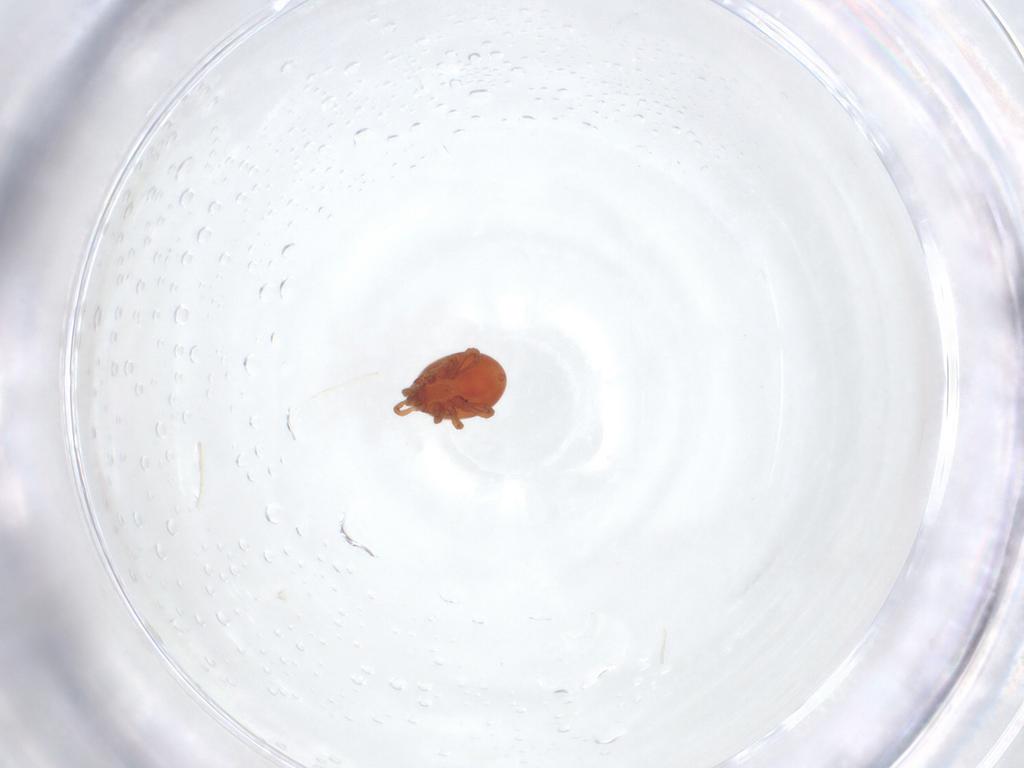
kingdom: Animalia
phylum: Arthropoda
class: Arachnida
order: Mesostigmata
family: Parasitidae
